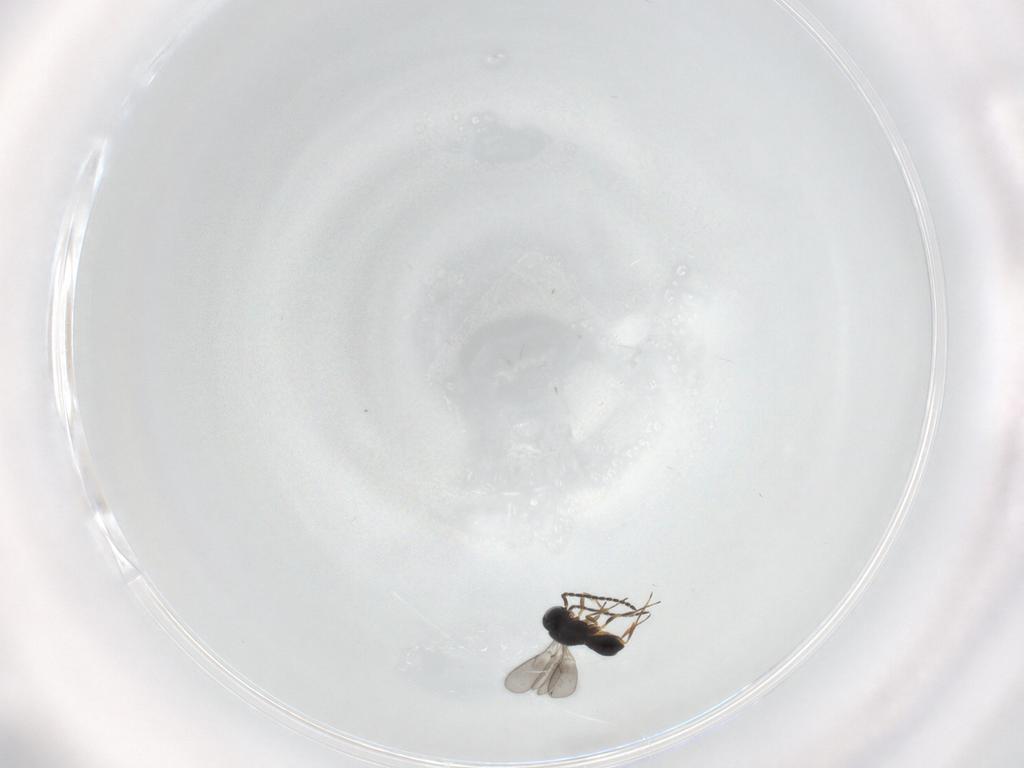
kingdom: Animalia
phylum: Arthropoda
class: Insecta
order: Hymenoptera
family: Scelionidae
